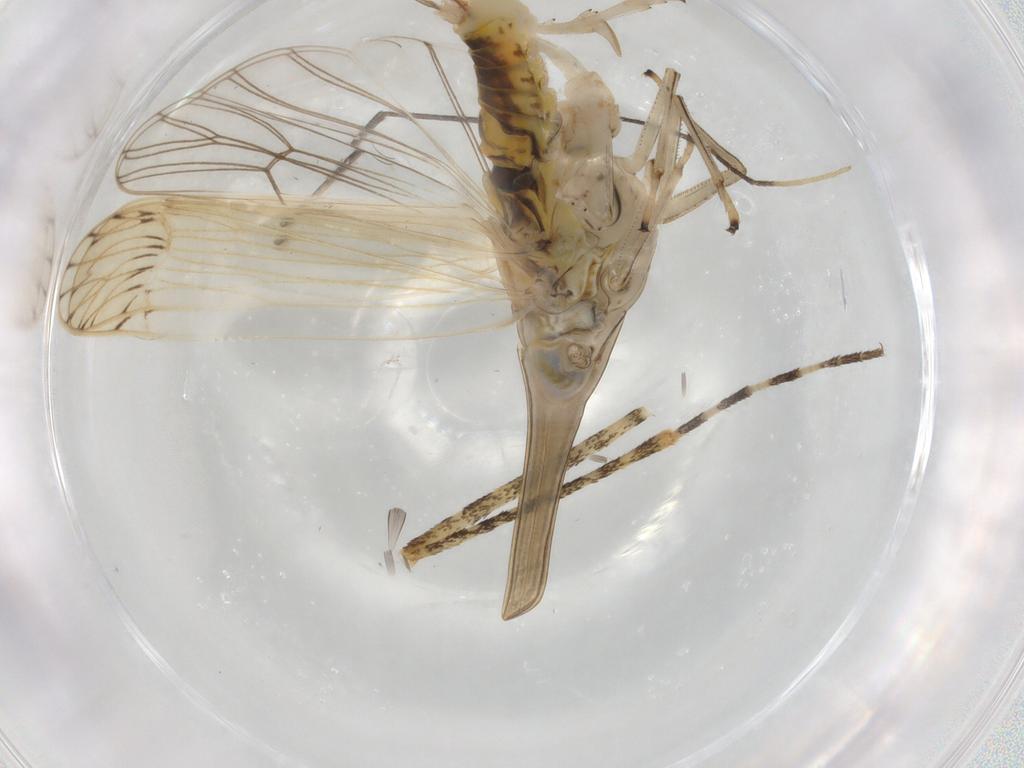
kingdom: Animalia
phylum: Arthropoda
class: Insecta
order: Hemiptera
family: Delphacidae
